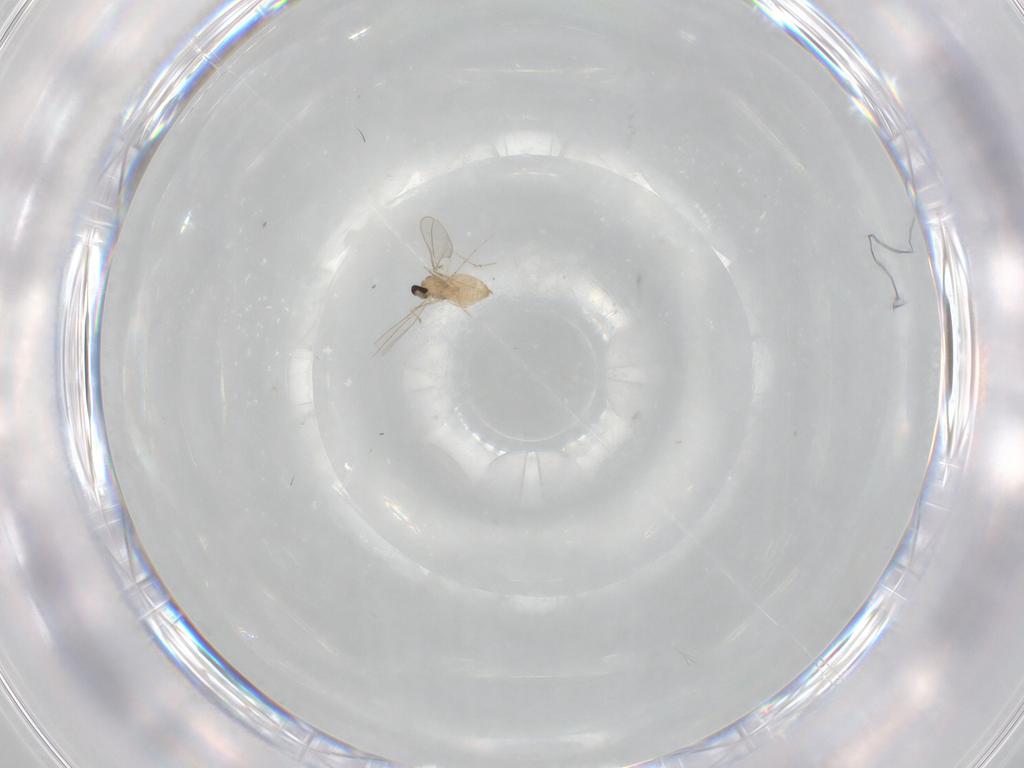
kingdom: Animalia
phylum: Arthropoda
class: Insecta
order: Diptera
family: Cecidomyiidae
